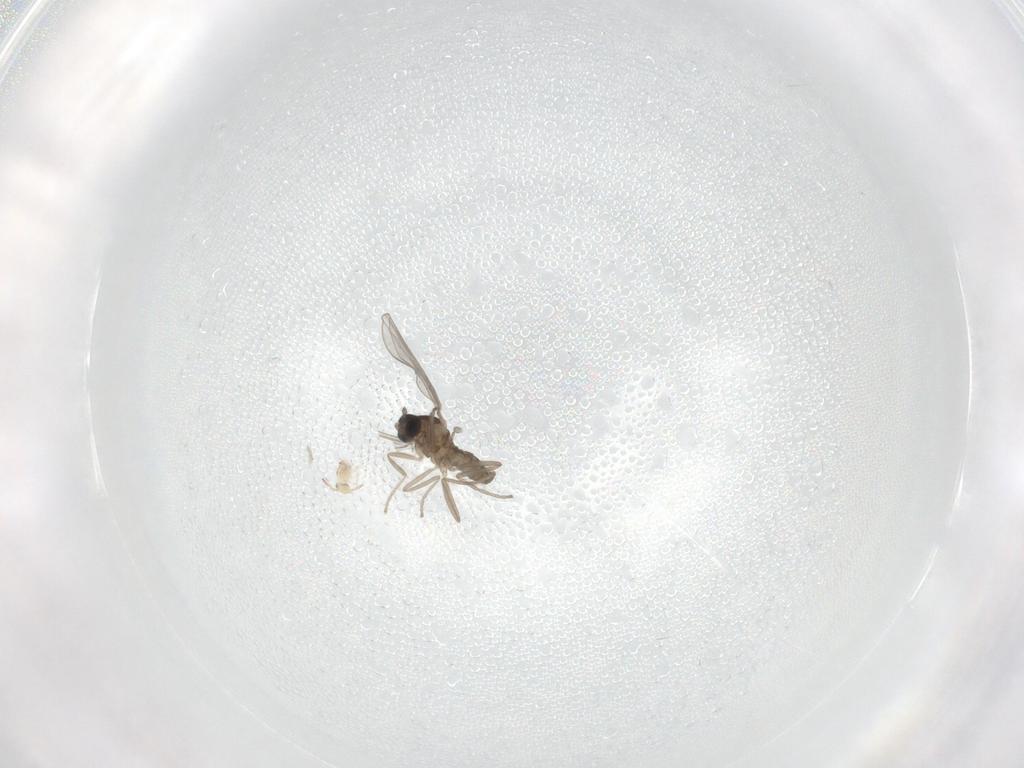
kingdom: Animalia
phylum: Arthropoda
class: Insecta
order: Diptera
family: Cecidomyiidae
